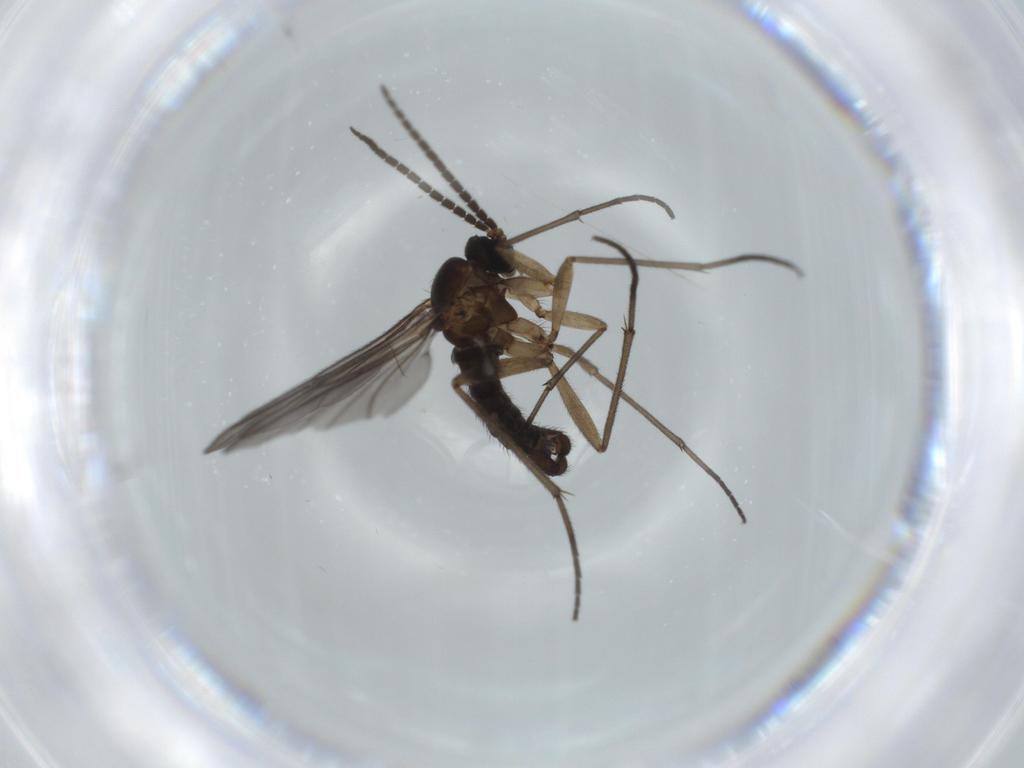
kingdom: Animalia
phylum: Arthropoda
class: Insecta
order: Diptera
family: Sciaridae
